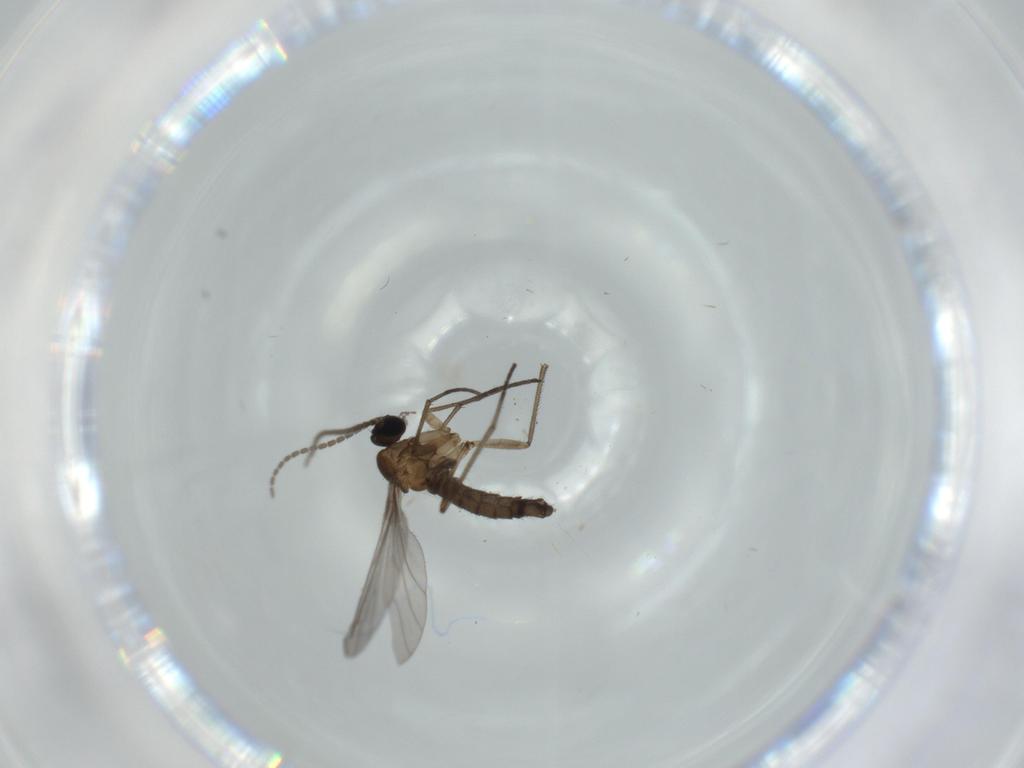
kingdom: Animalia
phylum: Arthropoda
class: Insecta
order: Diptera
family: Sciaridae
